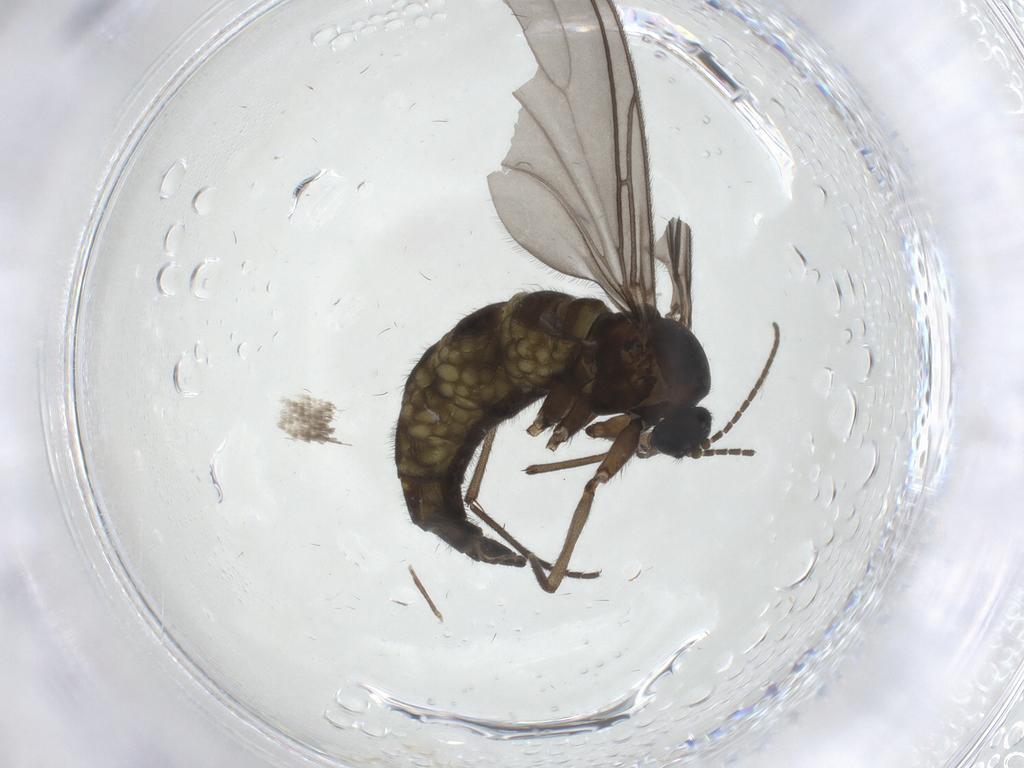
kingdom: Animalia
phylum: Arthropoda
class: Insecta
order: Diptera
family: Sciaridae
